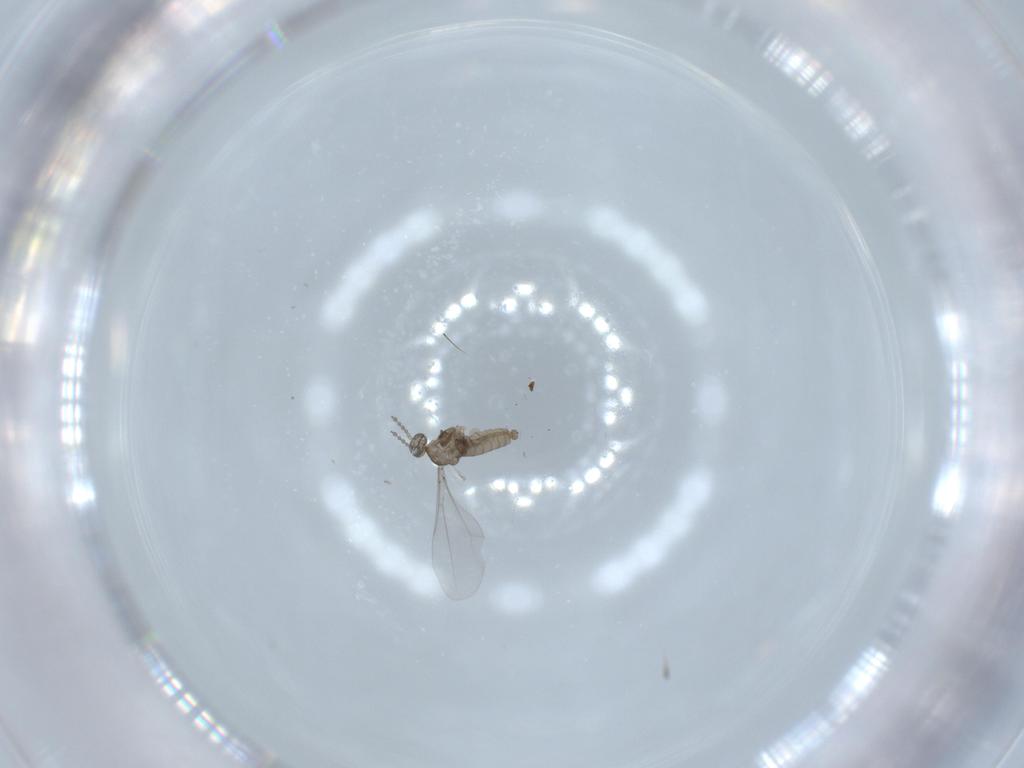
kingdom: Animalia
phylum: Arthropoda
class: Insecta
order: Diptera
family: Cecidomyiidae
